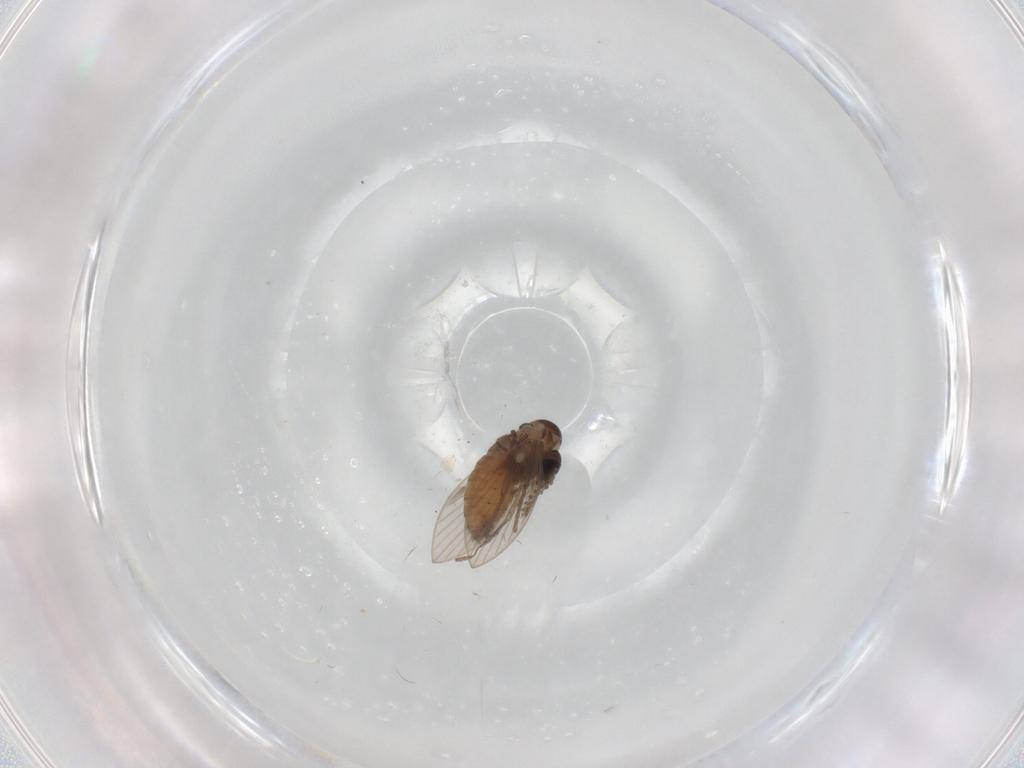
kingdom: Animalia
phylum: Arthropoda
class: Insecta
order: Diptera
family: Psychodidae
